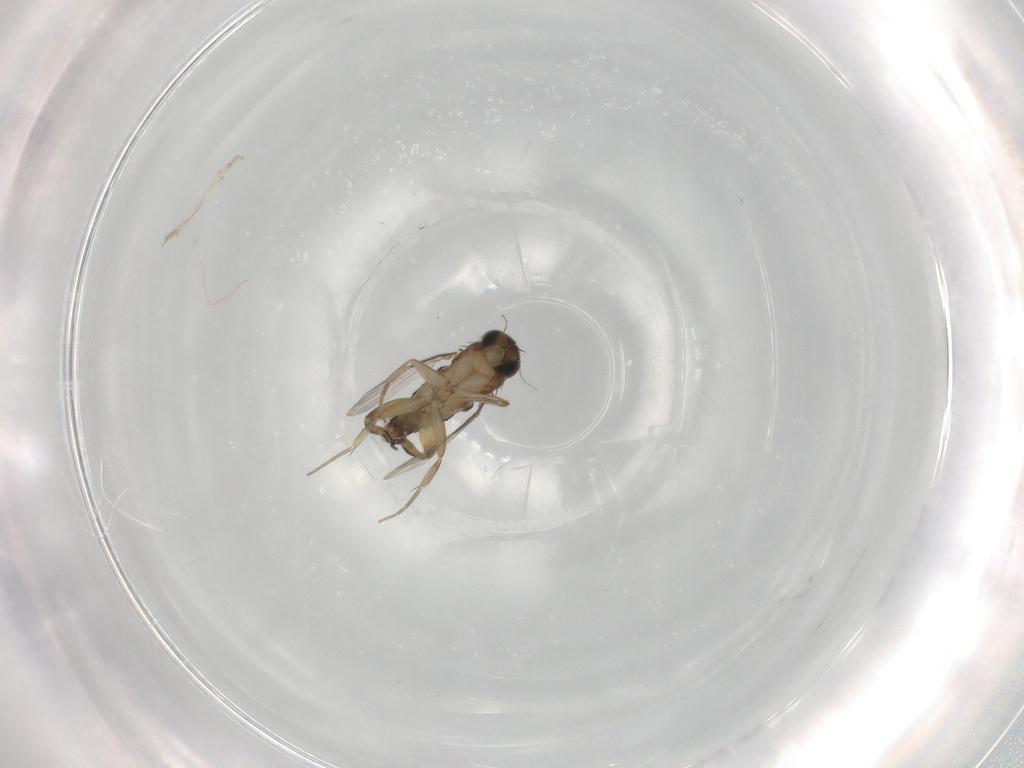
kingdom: Animalia
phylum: Arthropoda
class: Insecta
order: Diptera
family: Phoridae
